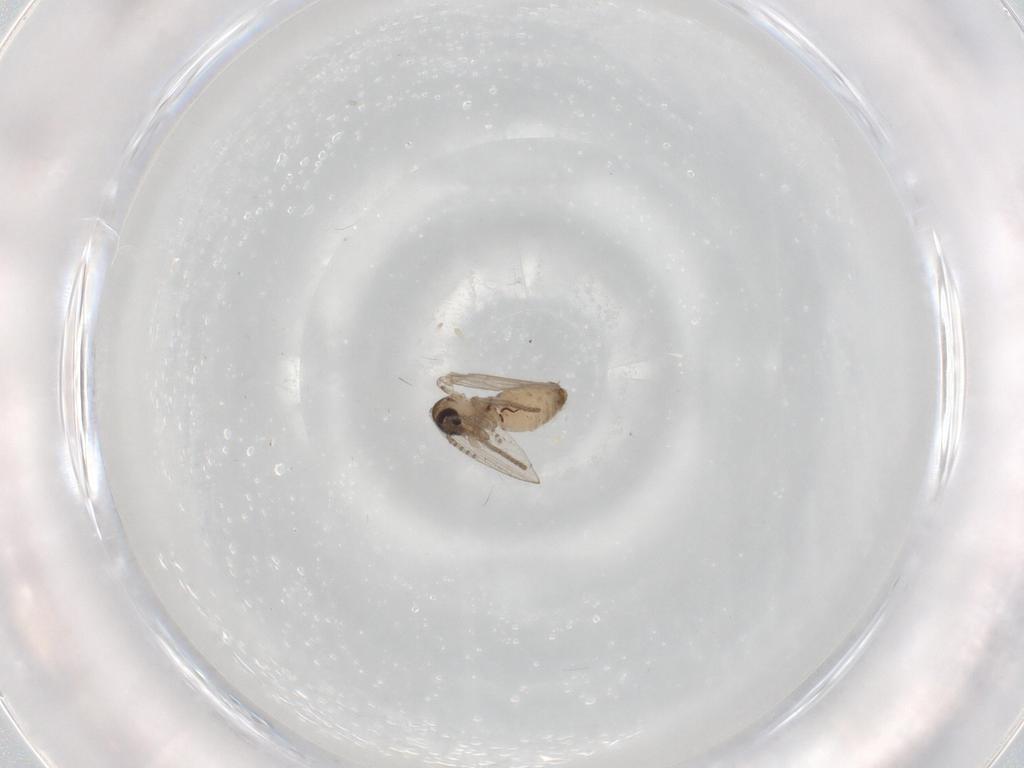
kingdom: Animalia
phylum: Arthropoda
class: Insecta
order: Diptera
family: Psychodidae
